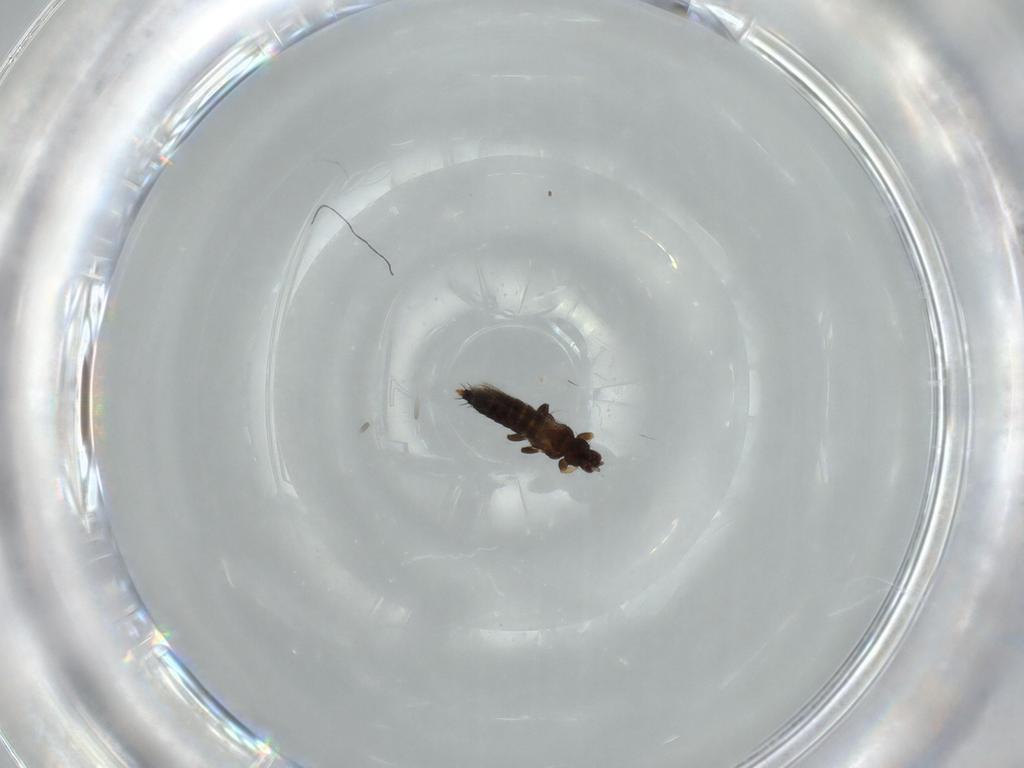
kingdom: Animalia
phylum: Arthropoda
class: Insecta
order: Thysanoptera
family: Thripidae
